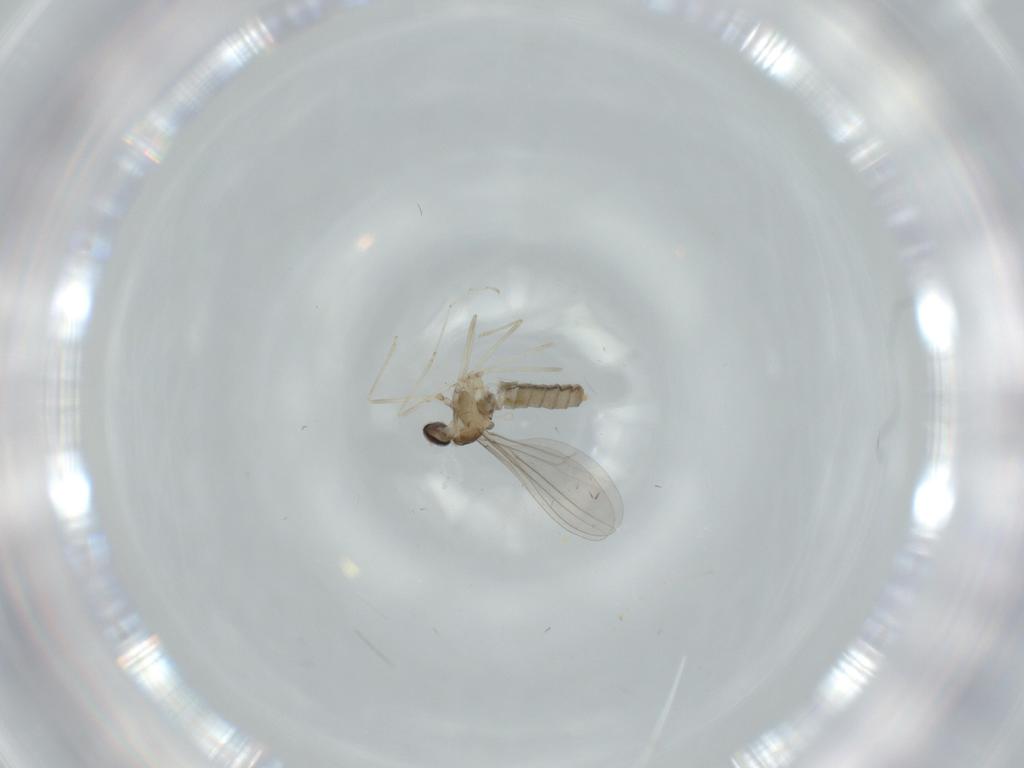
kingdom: Animalia
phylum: Arthropoda
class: Insecta
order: Diptera
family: Cecidomyiidae
